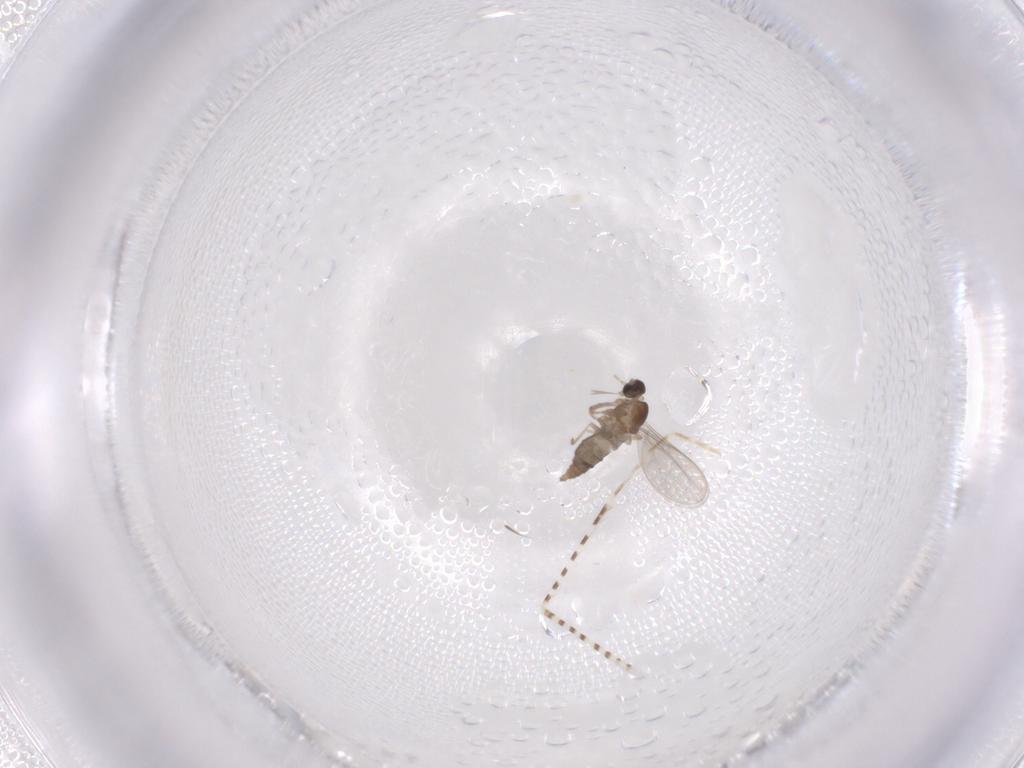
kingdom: Animalia
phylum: Arthropoda
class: Insecta
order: Diptera
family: Cecidomyiidae
